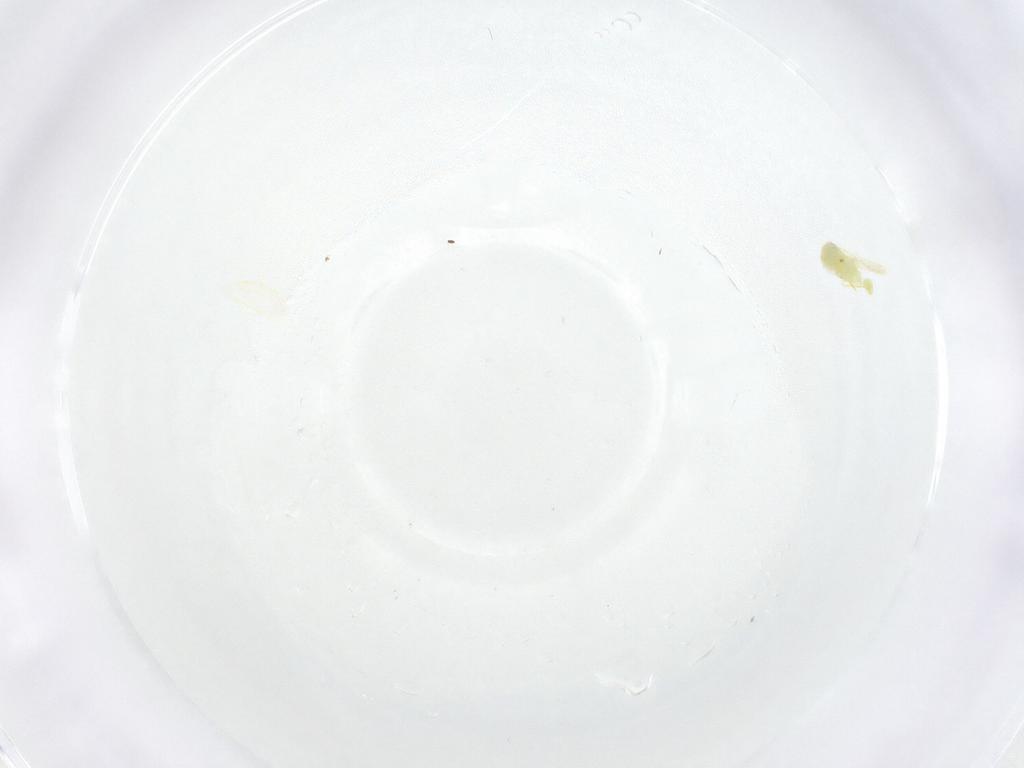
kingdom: Animalia
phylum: Arthropoda
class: Insecta
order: Hemiptera
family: Aleyrodidae
